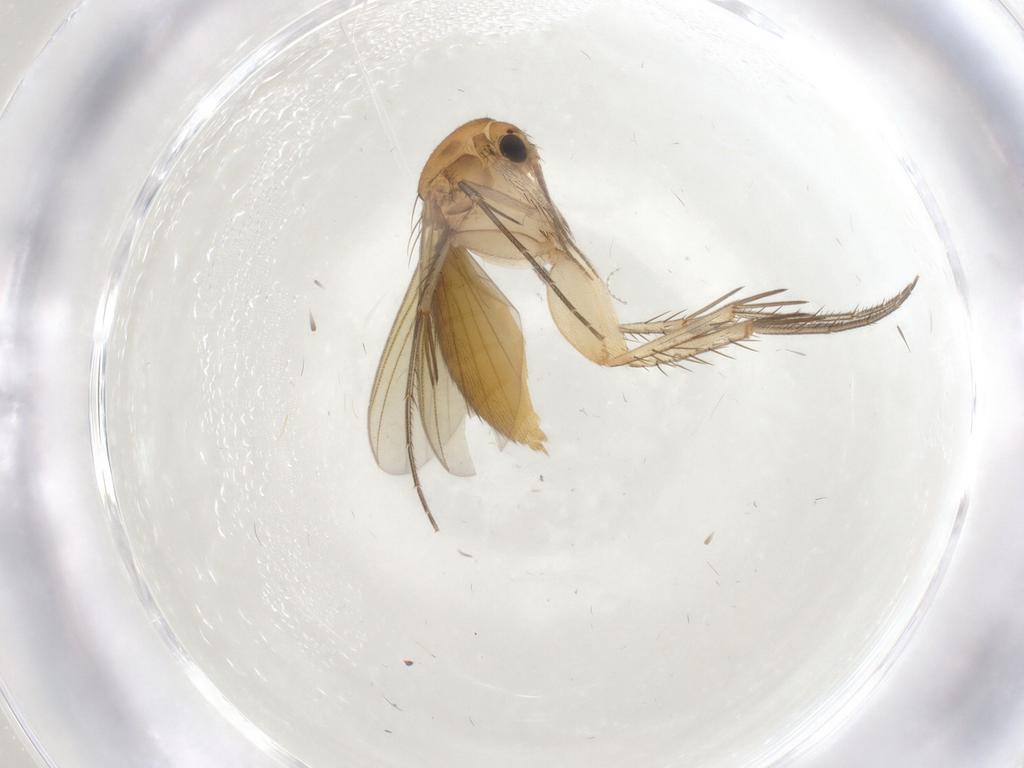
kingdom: Animalia
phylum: Arthropoda
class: Insecta
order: Diptera
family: Mycetophilidae
